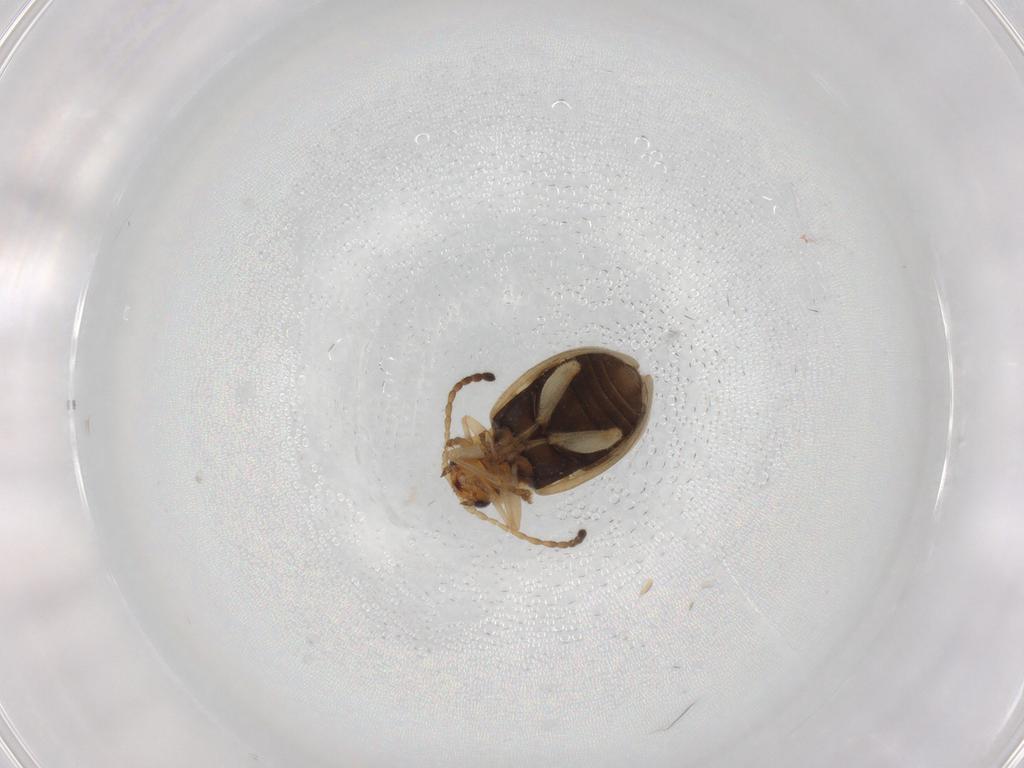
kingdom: Animalia
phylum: Arthropoda
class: Insecta
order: Coleoptera
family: Chrysomelidae
